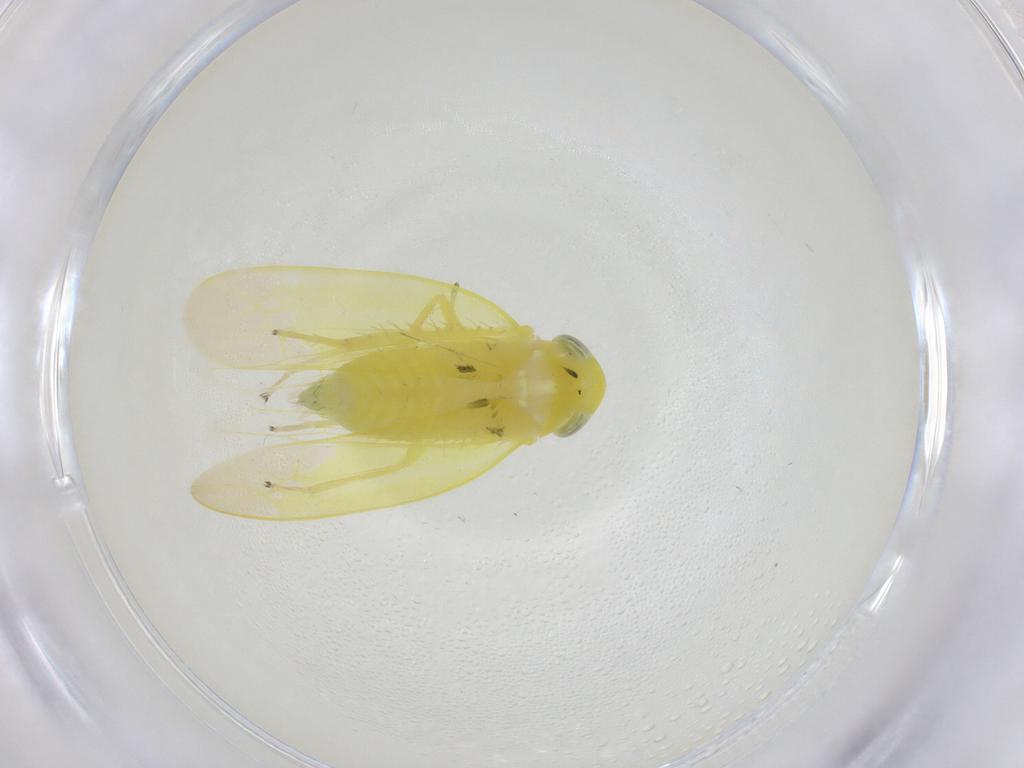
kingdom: Animalia
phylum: Arthropoda
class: Insecta
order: Hemiptera
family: Cicadellidae
